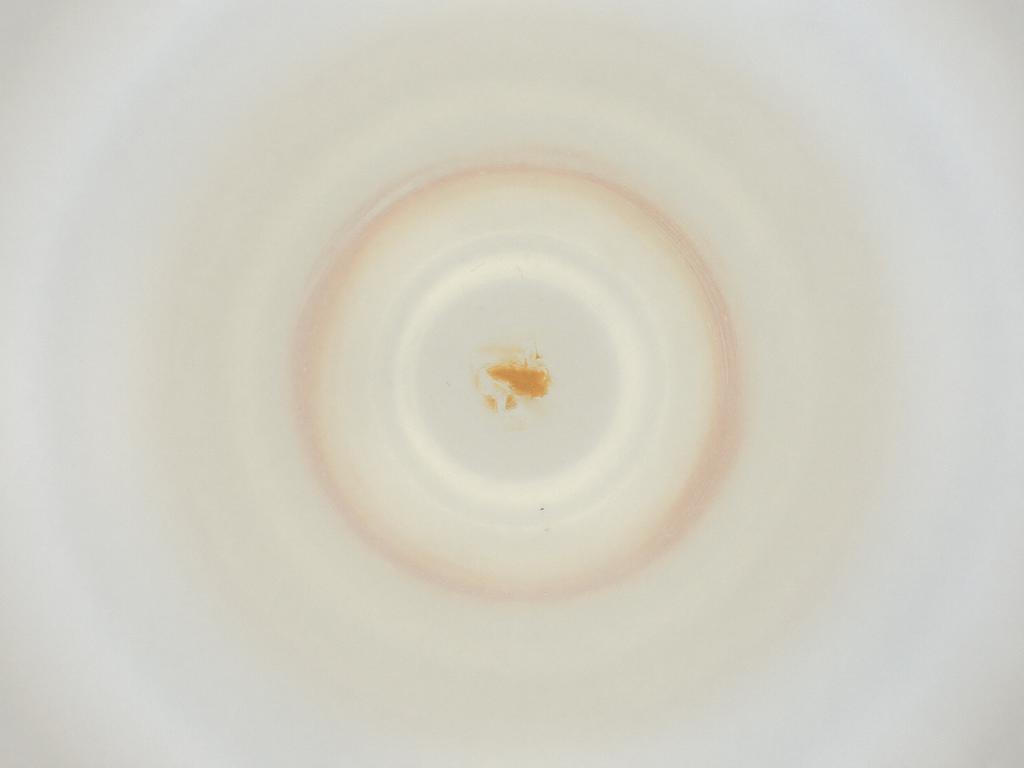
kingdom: Animalia
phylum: Arthropoda
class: Insecta
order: Diptera
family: Cecidomyiidae
